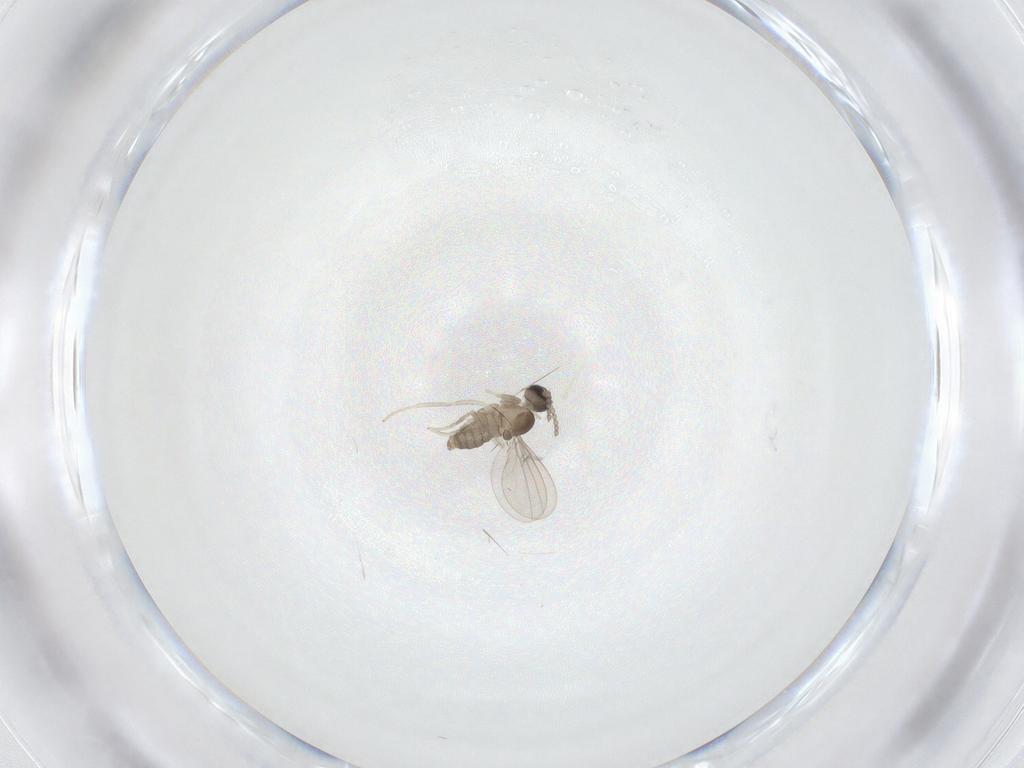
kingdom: Animalia
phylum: Arthropoda
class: Insecta
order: Diptera
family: Cecidomyiidae
